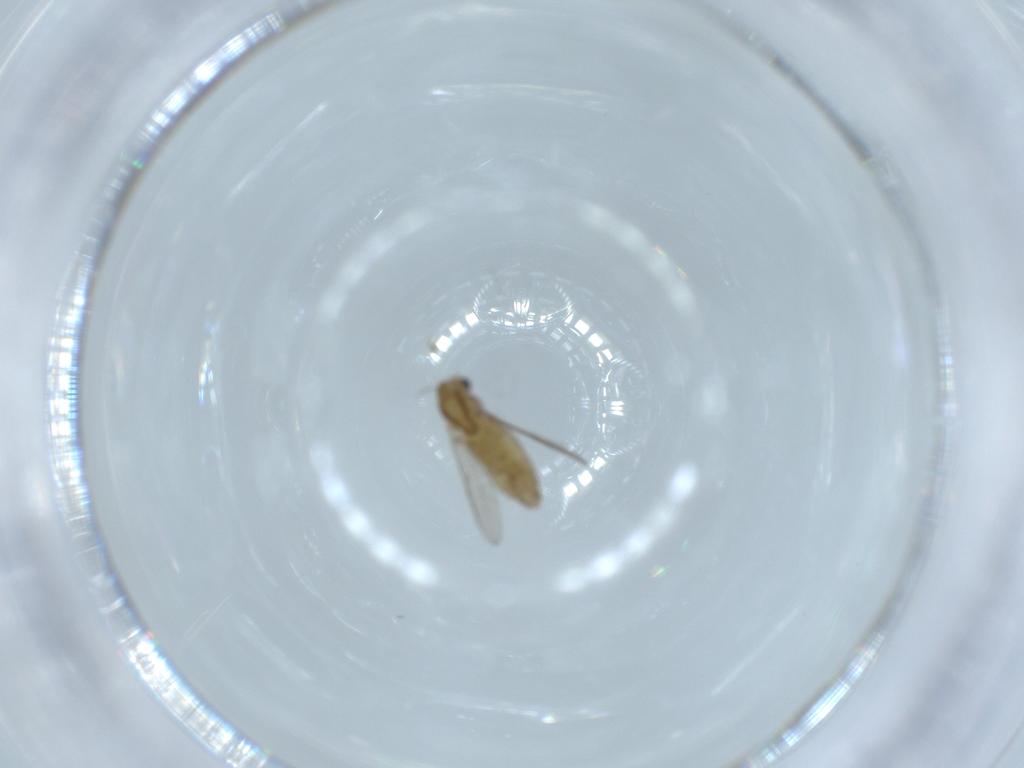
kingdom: Animalia
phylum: Arthropoda
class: Insecta
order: Diptera
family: Chironomidae
